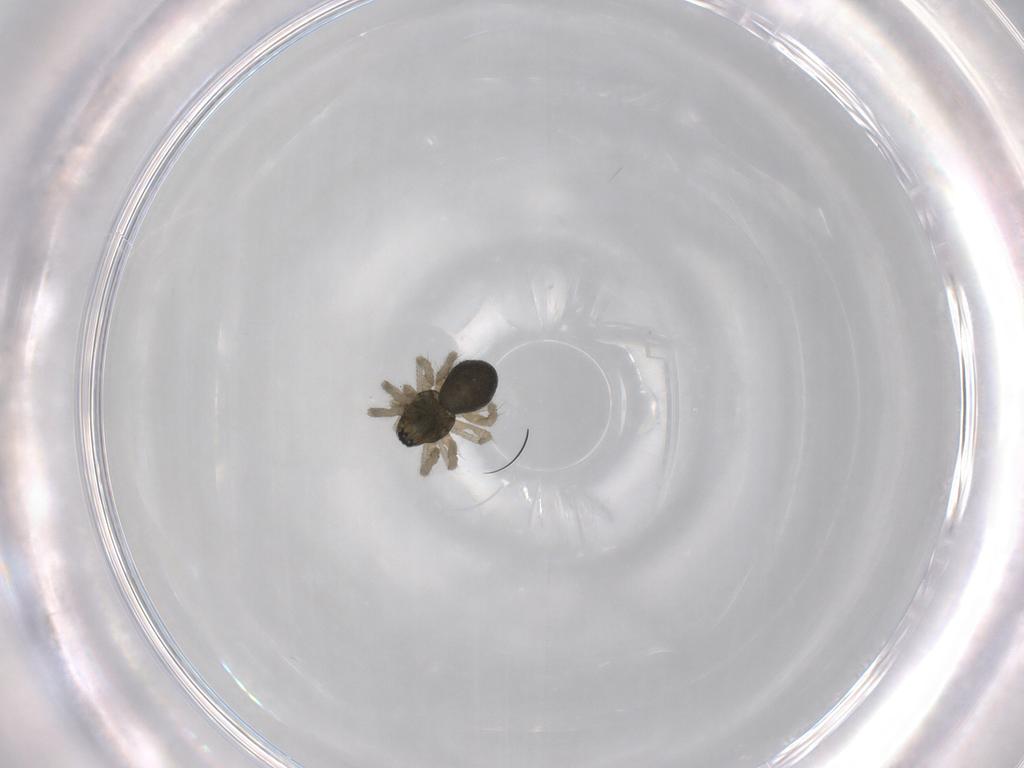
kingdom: Animalia
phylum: Arthropoda
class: Arachnida
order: Araneae
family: Linyphiidae
